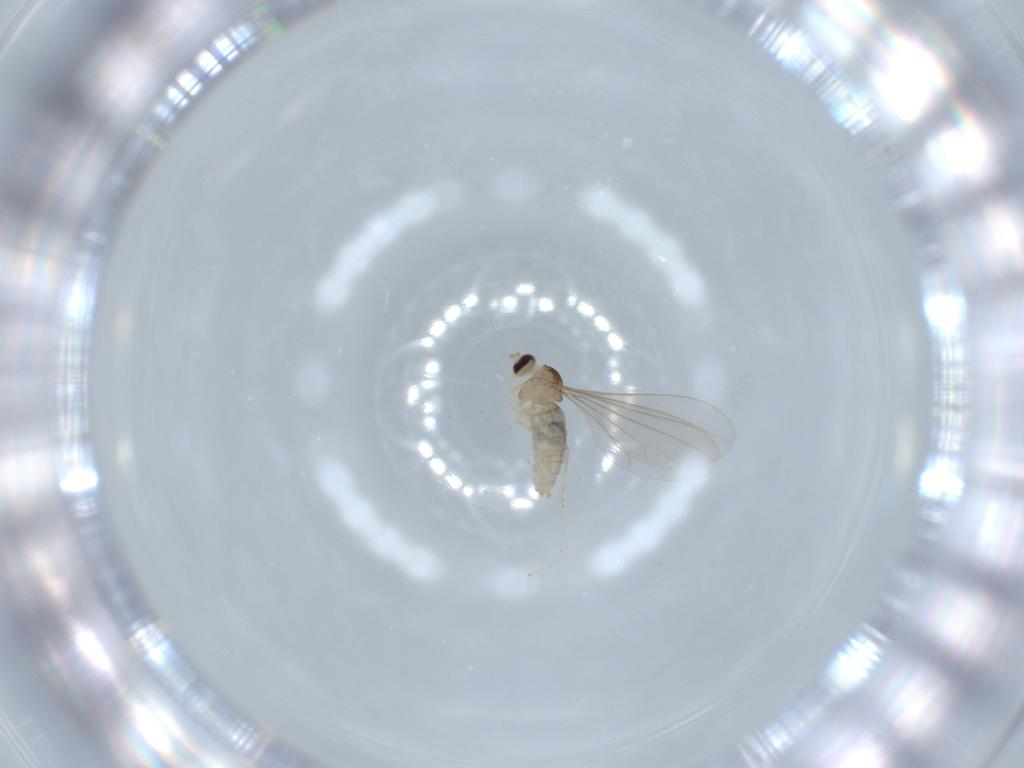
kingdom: Animalia
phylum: Arthropoda
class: Insecta
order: Diptera
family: Cecidomyiidae
